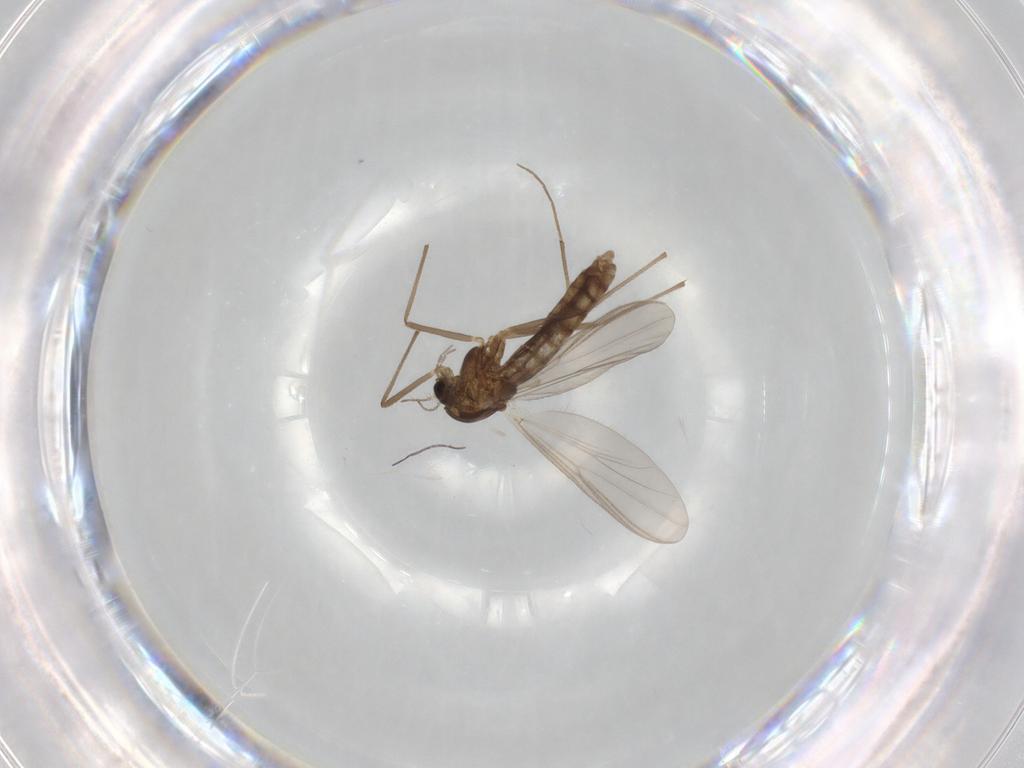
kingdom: Animalia
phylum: Arthropoda
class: Insecta
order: Diptera
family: Chironomidae
